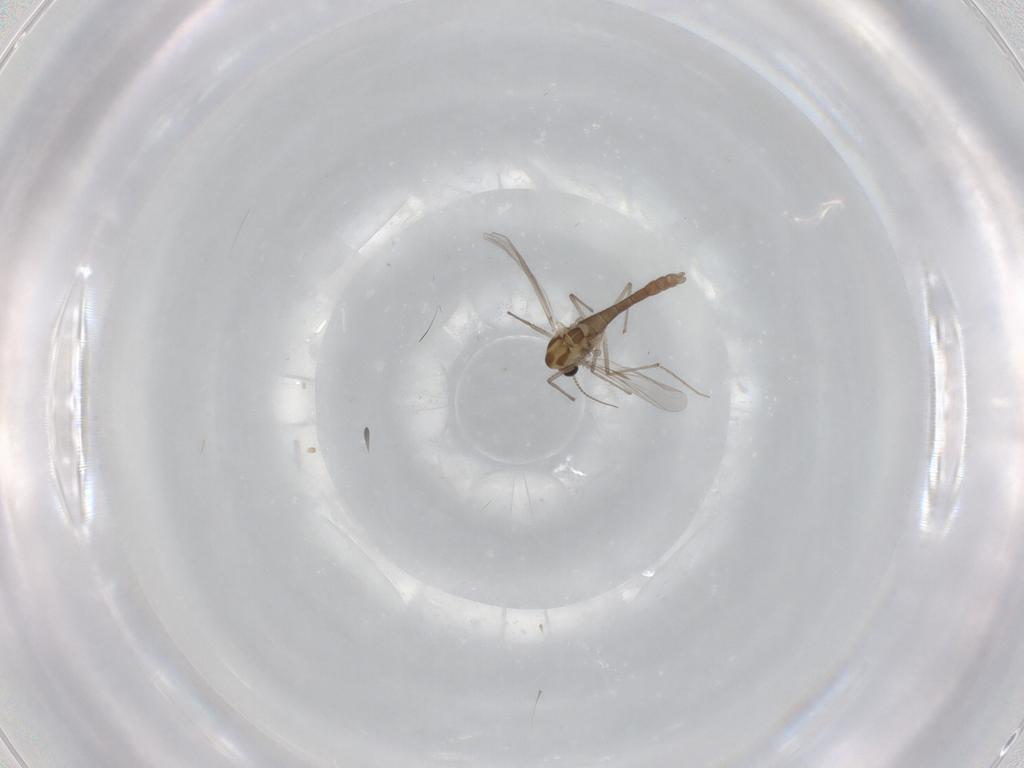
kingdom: Animalia
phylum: Arthropoda
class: Insecta
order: Diptera
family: Chironomidae
